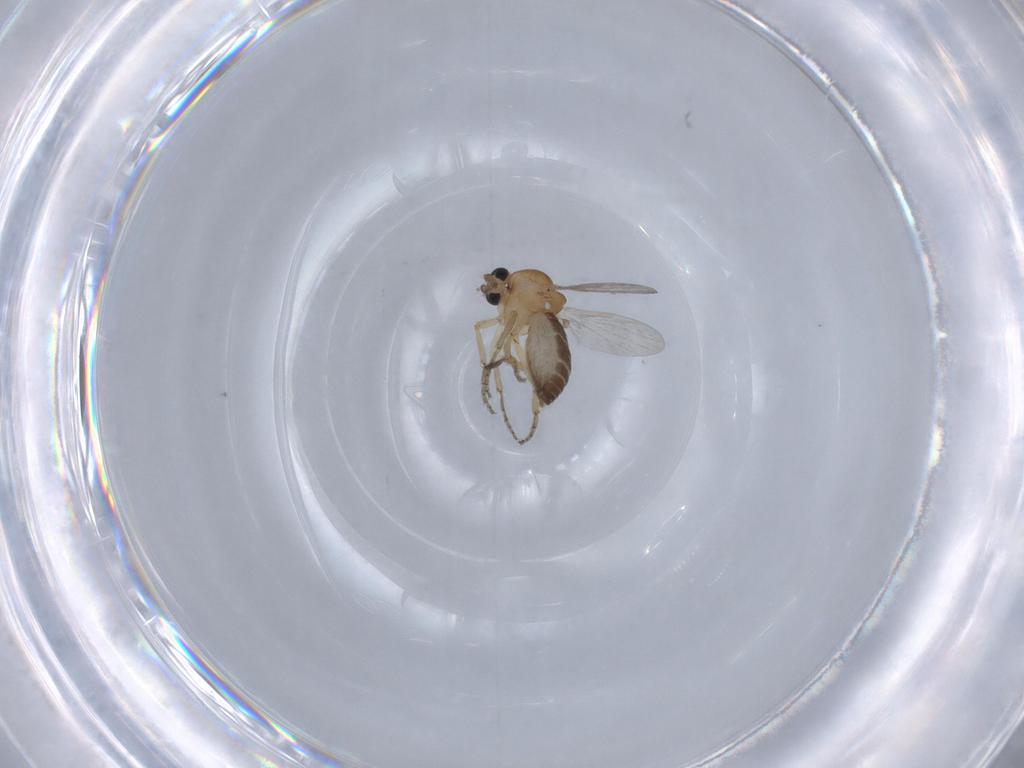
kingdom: Animalia
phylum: Arthropoda
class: Insecta
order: Diptera
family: Ceratopogonidae
